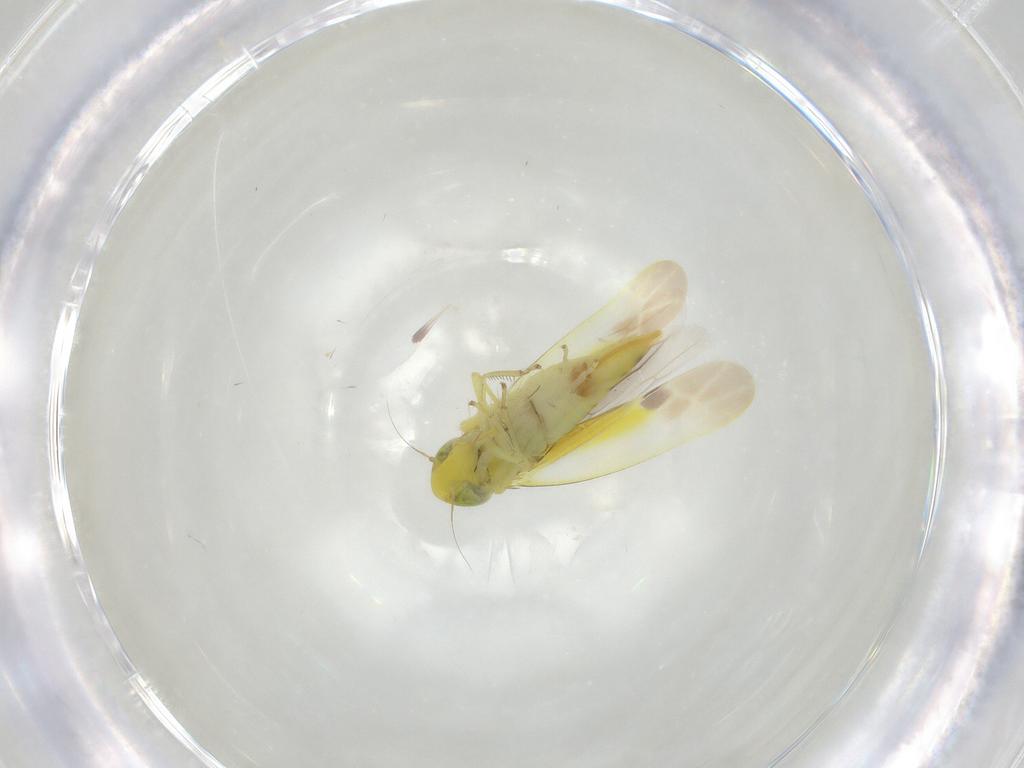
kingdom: Animalia
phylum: Arthropoda
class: Insecta
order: Hemiptera
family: Cicadellidae
